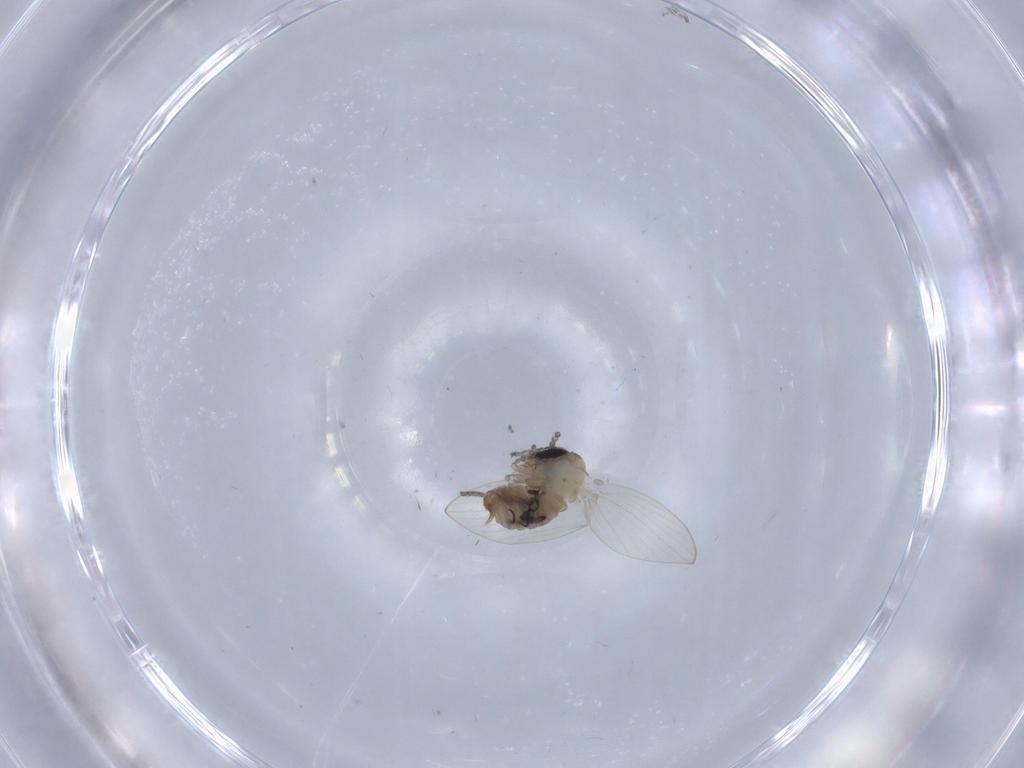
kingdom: Animalia
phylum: Arthropoda
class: Insecta
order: Diptera
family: Psychodidae
